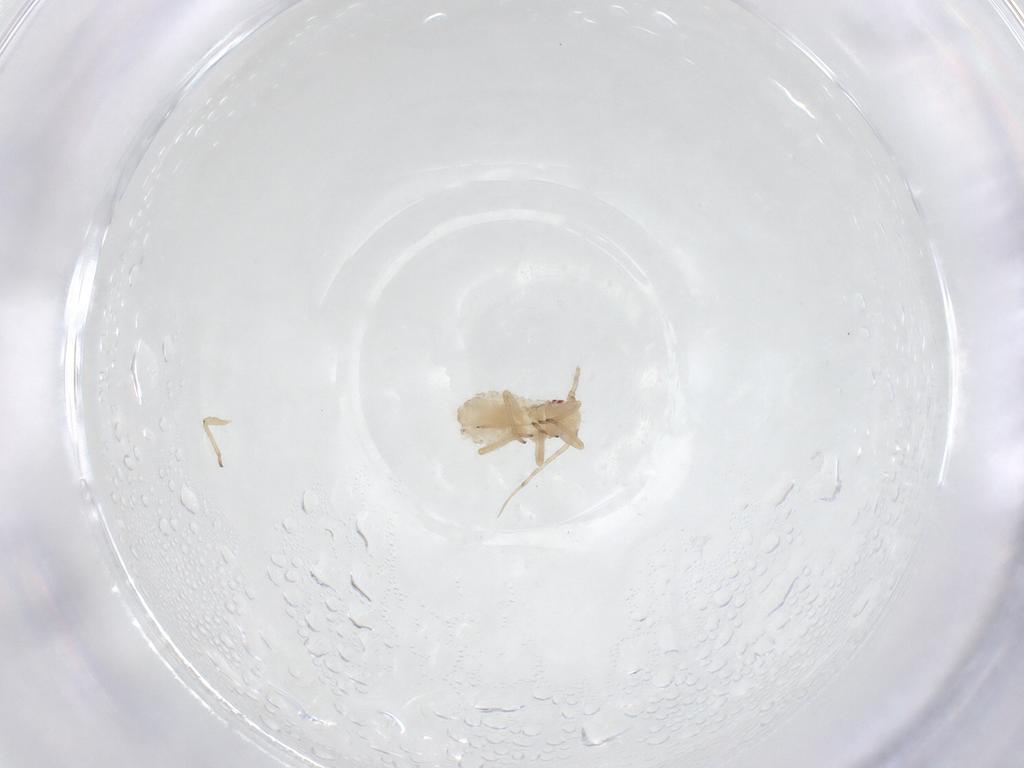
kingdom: Animalia
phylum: Arthropoda
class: Insecta
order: Hemiptera
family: Aphididae
